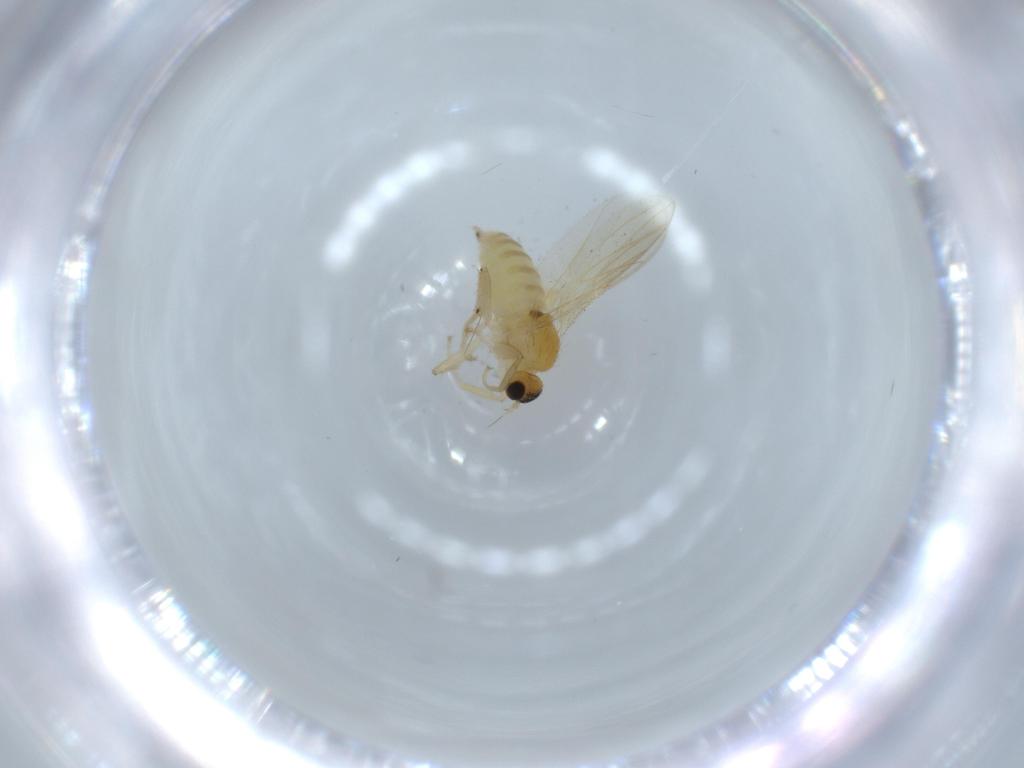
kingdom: Animalia
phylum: Arthropoda
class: Insecta
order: Diptera
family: Hybotidae
